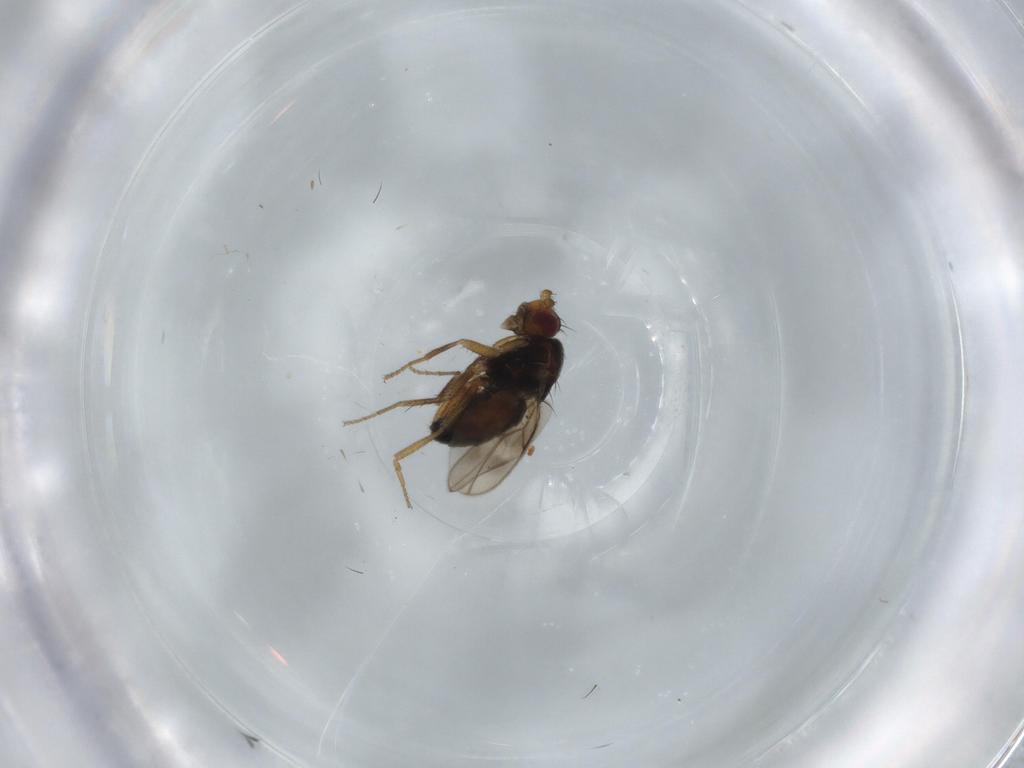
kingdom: Animalia
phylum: Arthropoda
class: Insecta
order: Diptera
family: Sphaeroceridae
